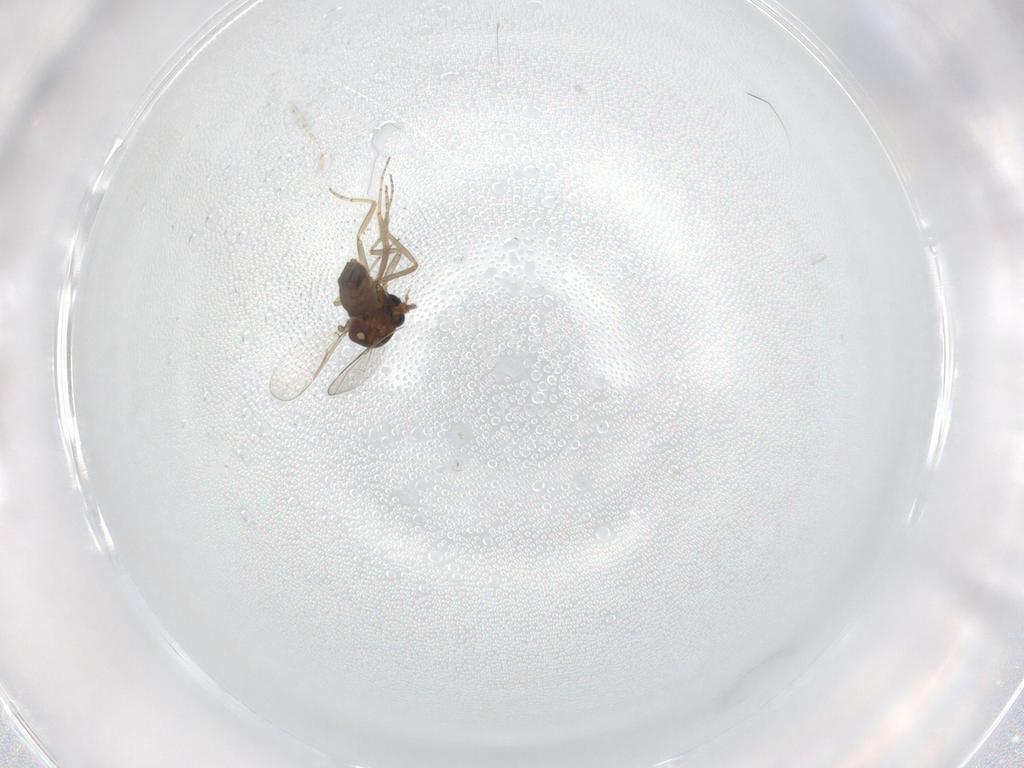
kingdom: Animalia
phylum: Arthropoda
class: Insecta
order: Diptera
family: Ceratopogonidae
